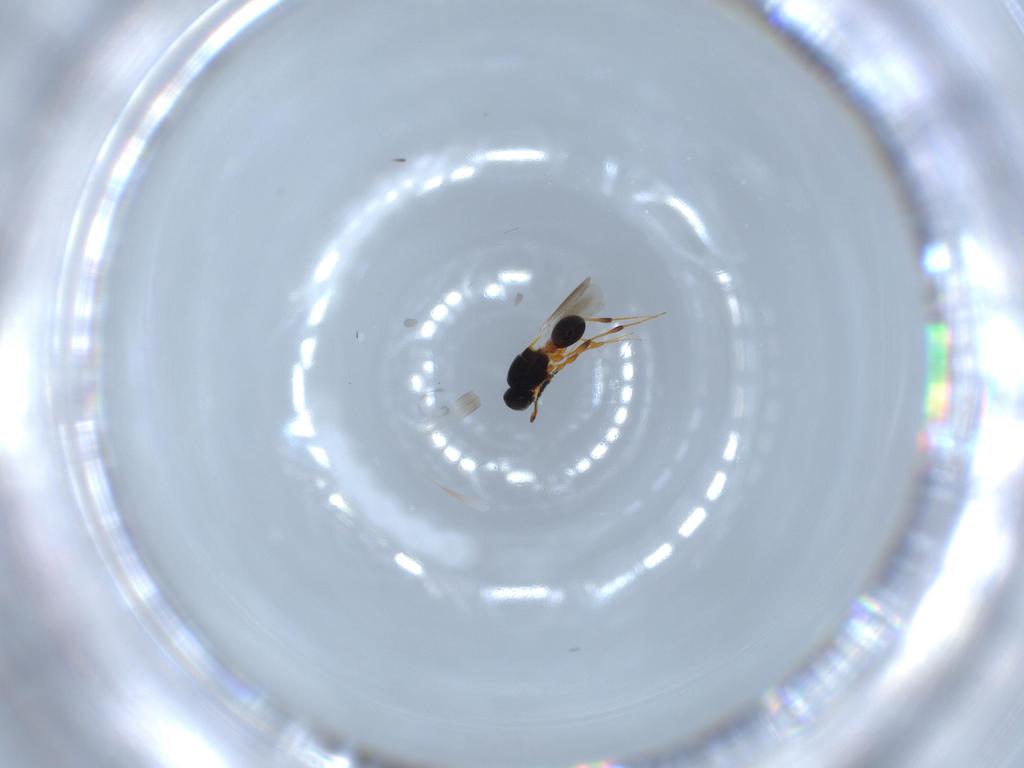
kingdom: Animalia
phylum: Arthropoda
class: Insecta
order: Hymenoptera
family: Platygastridae
